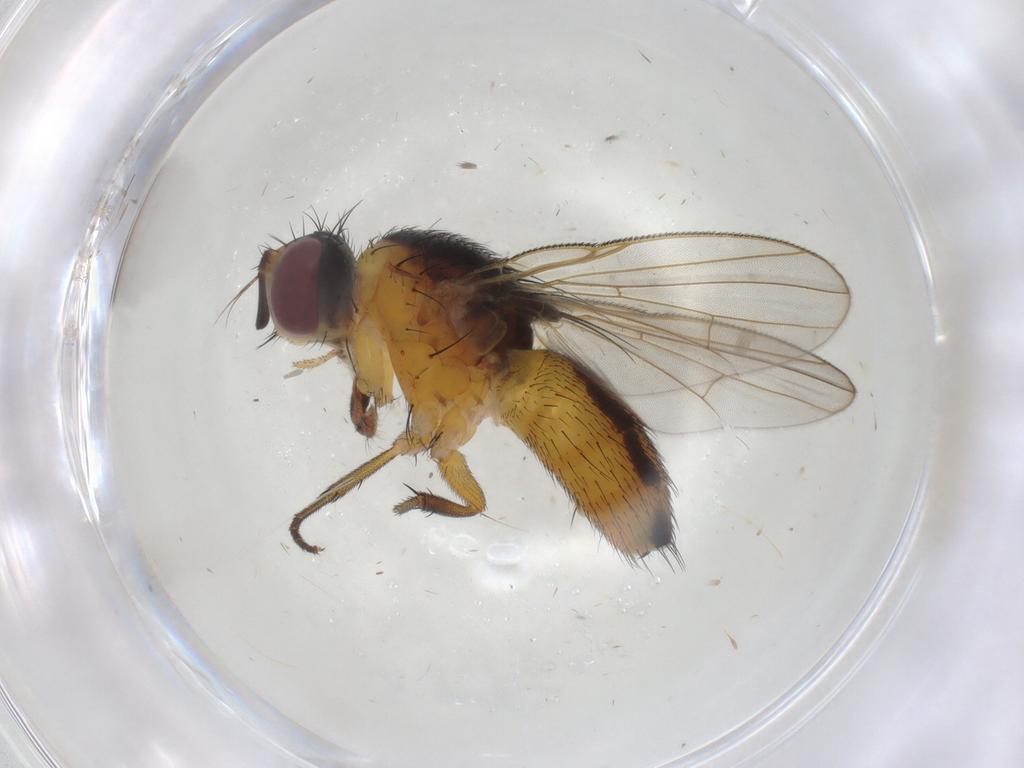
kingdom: Animalia
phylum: Arthropoda
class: Insecta
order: Diptera
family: Muscidae
